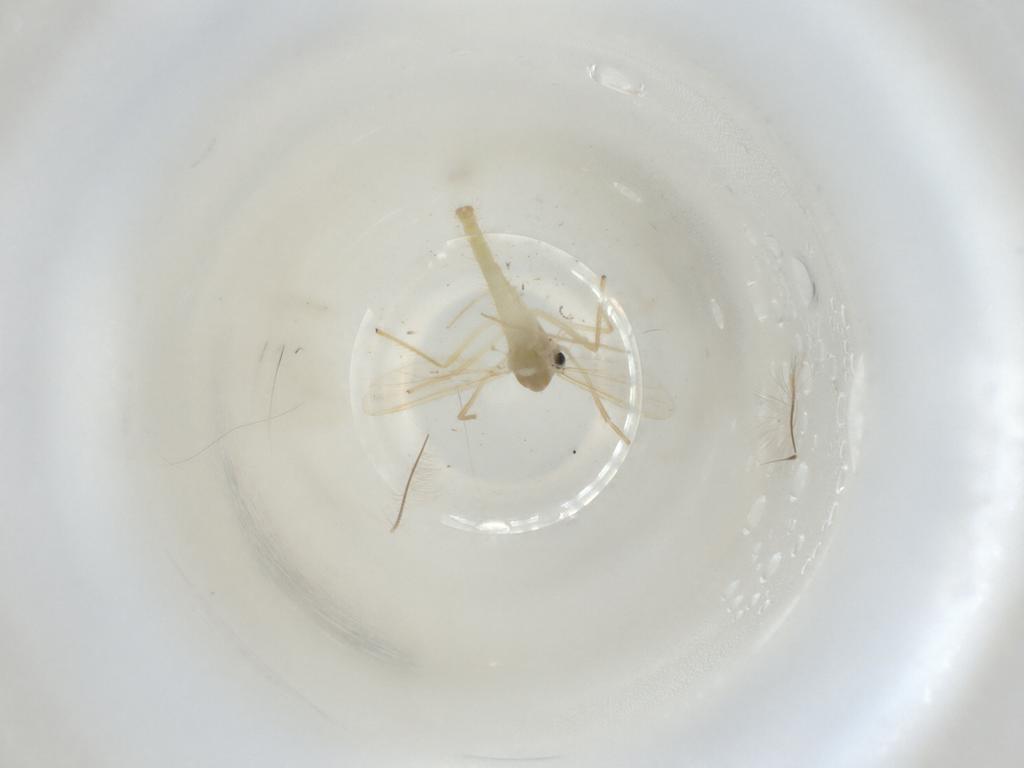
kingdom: Animalia
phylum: Arthropoda
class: Insecta
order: Diptera
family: Chironomidae
